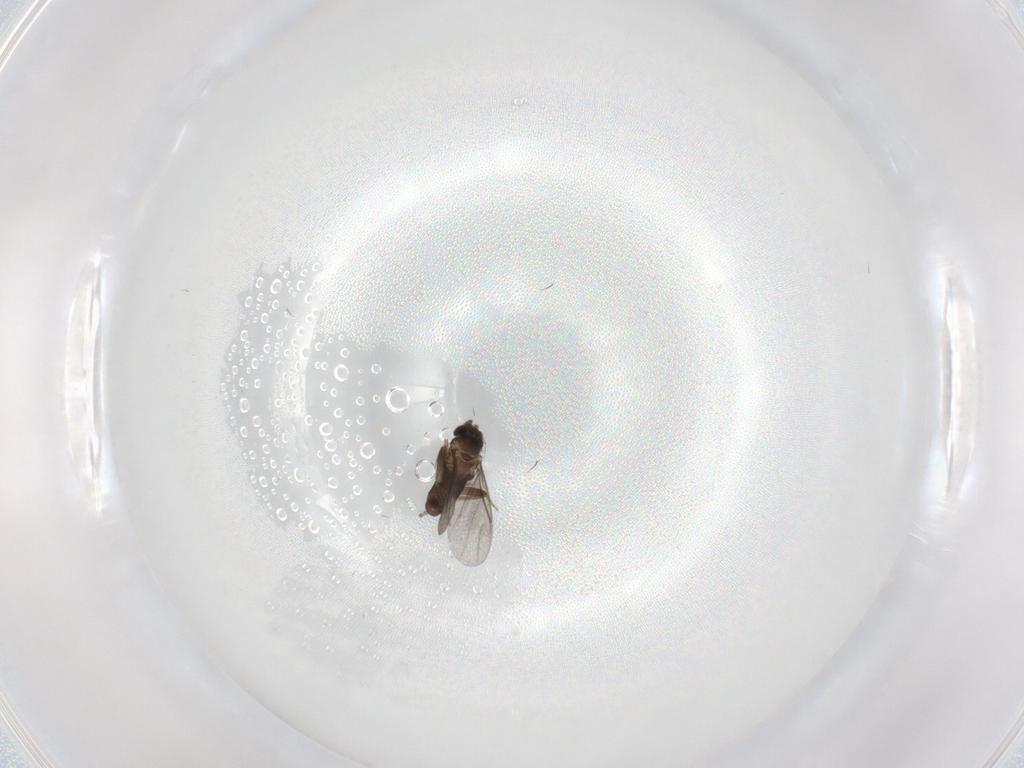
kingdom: Animalia
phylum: Arthropoda
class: Insecta
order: Diptera
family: Ceratopogonidae
